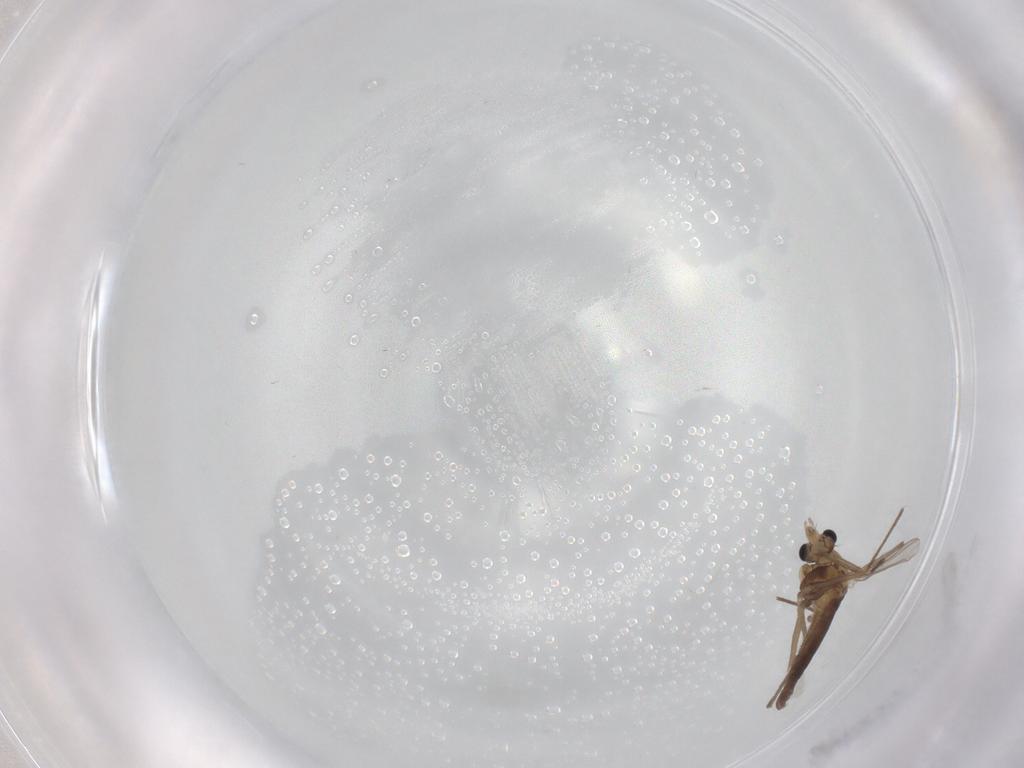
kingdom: Animalia
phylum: Arthropoda
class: Insecta
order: Diptera
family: Chironomidae
